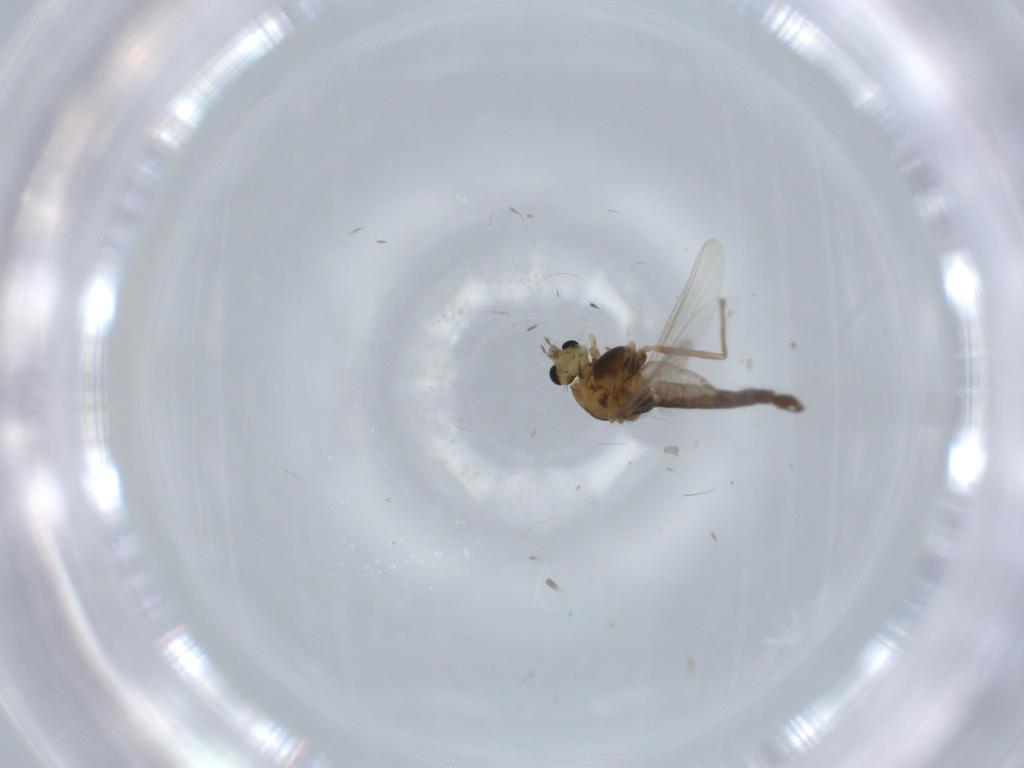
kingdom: Animalia
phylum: Arthropoda
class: Insecta
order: Diptera
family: Chironomidae
